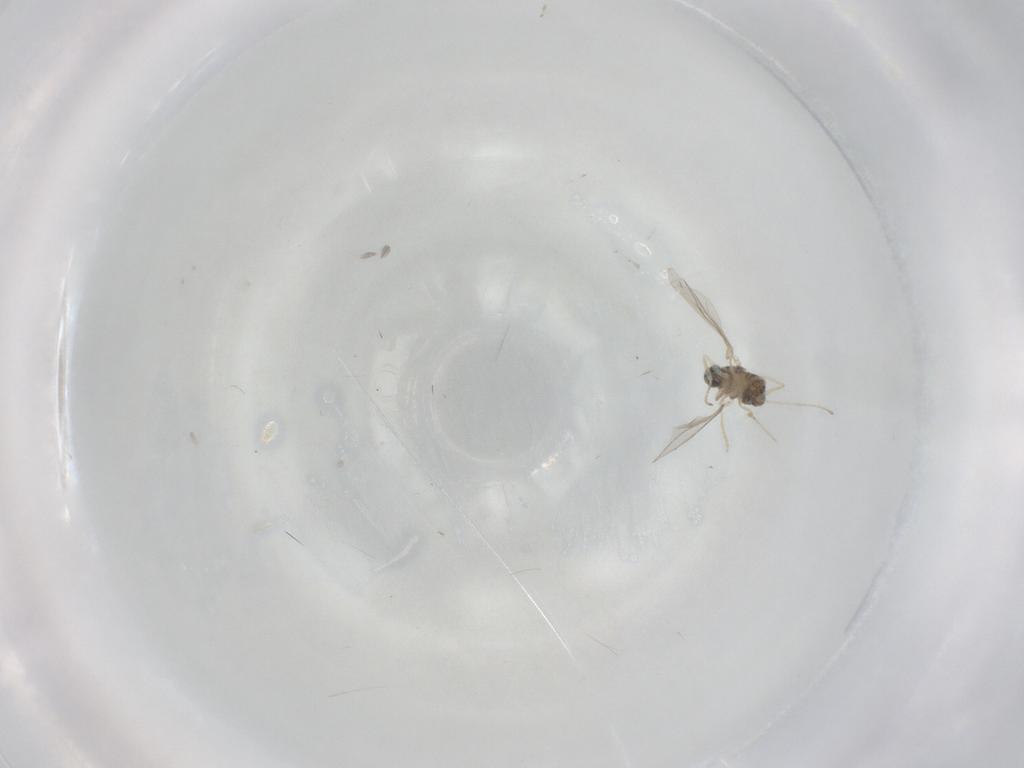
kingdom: Animalia
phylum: Arthropoda
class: Insecta
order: Diptera
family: Cecidomyiidae
